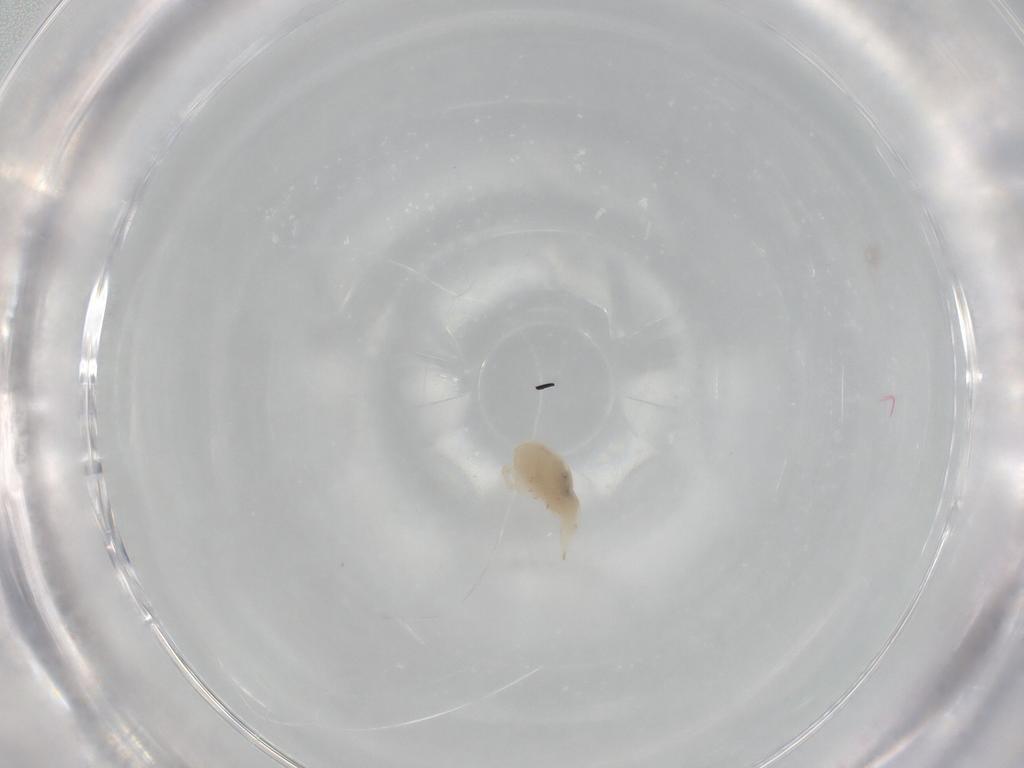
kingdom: Animalia
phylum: Arthropoda
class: Arachnida
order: Trombidiformes
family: Bdellidae
